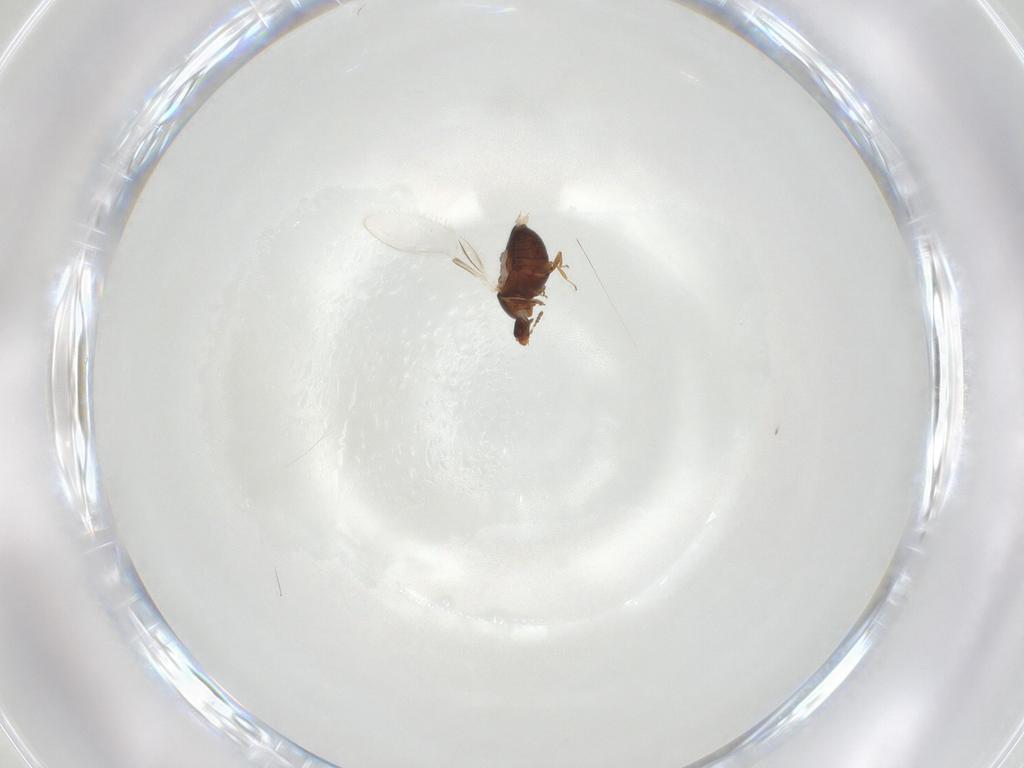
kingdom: Animalia
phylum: Arthropoda
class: Insecta
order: Coleoptera
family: Corylophidae
